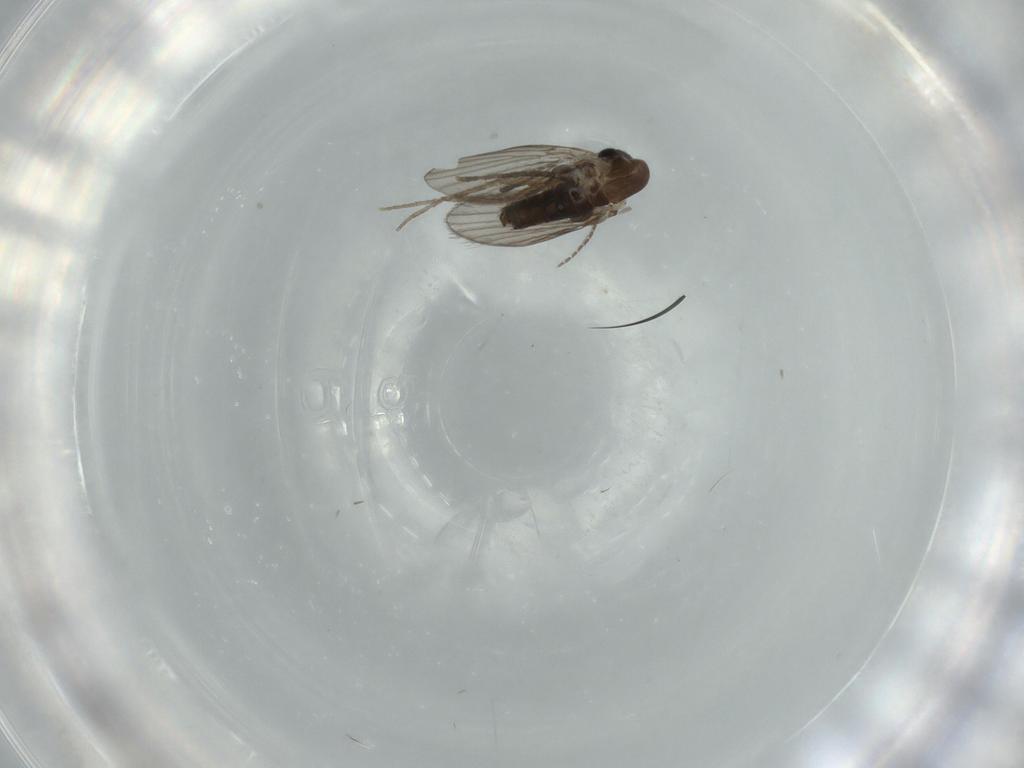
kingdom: Animalia
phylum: Arthropoda
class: Insecta
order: Diptera
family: Psychodidae
